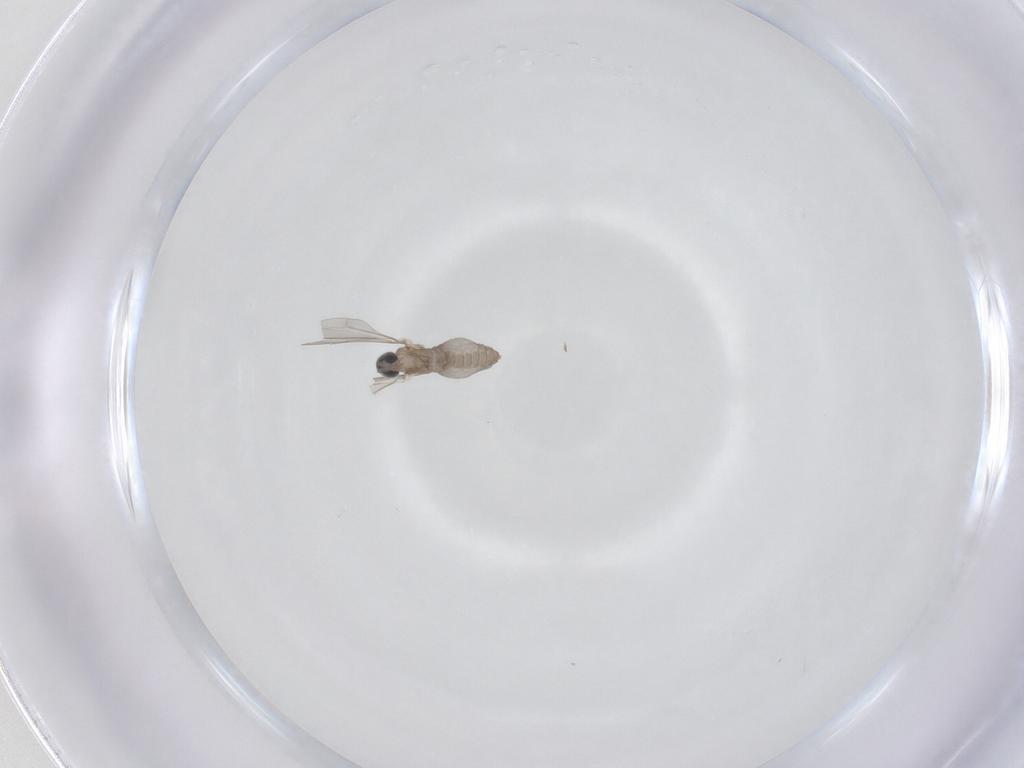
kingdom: Animalia
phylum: Arthropoda
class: Insecta
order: Diptera
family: Cecidomyiidae
